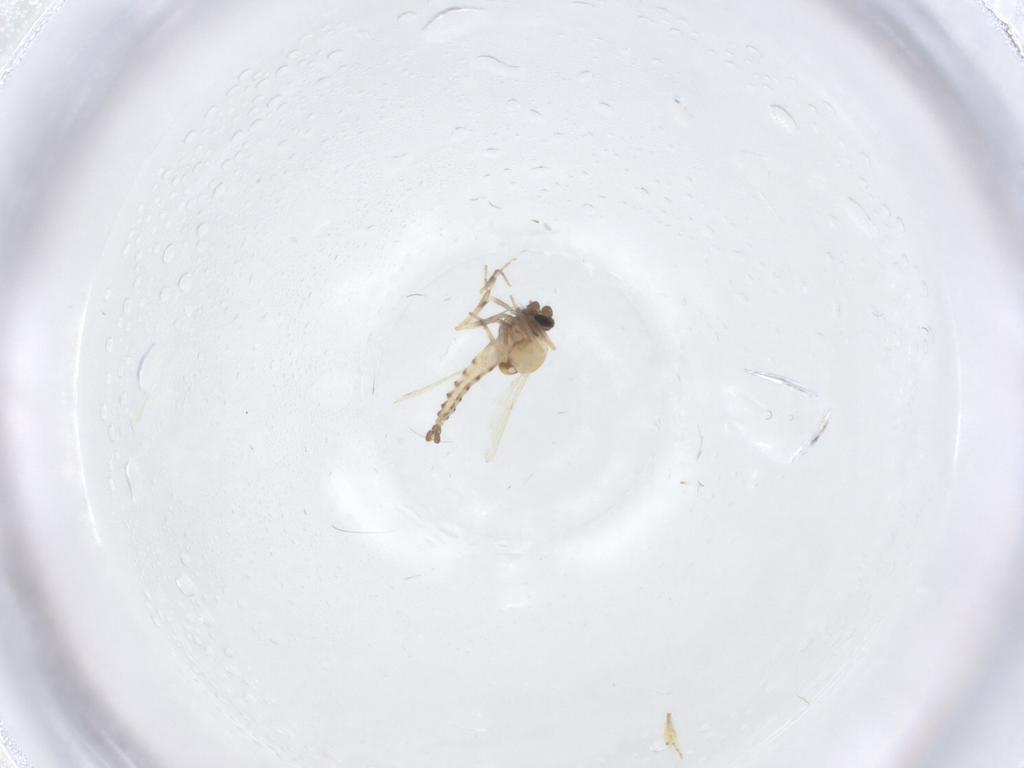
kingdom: Animalia
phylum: Arthropoda
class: Insecta
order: Diptera
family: Ceratopogonidae
